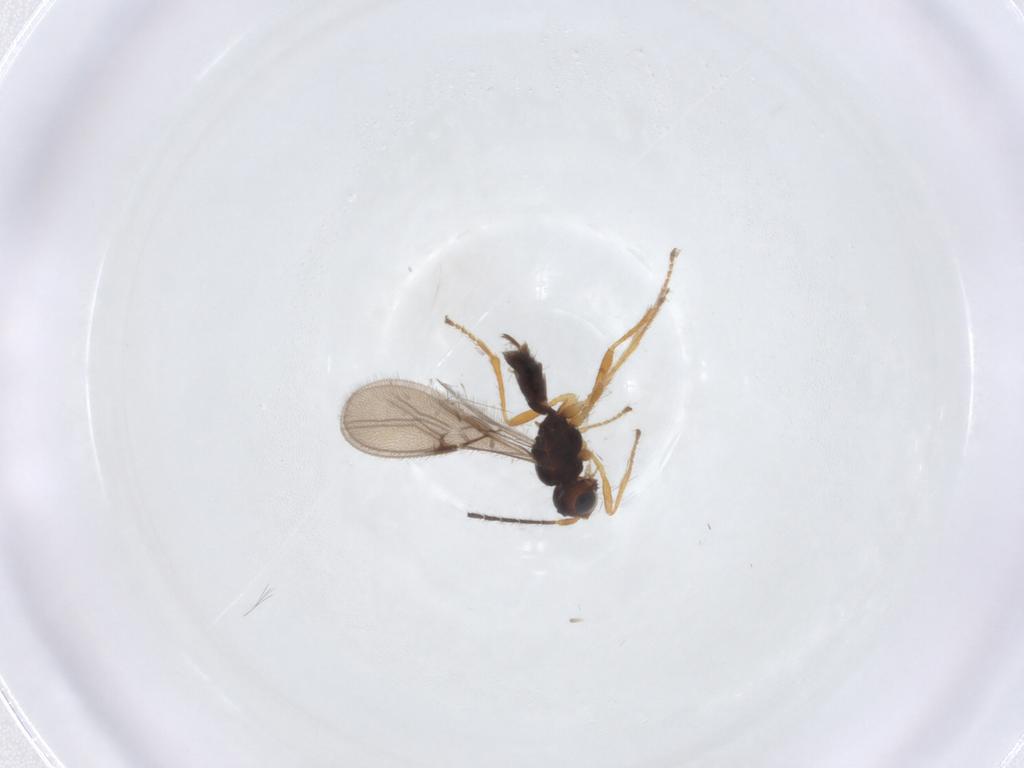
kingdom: Animalia
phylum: Arthropoda
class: Insecta
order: Hymenoptera
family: Braconidae
